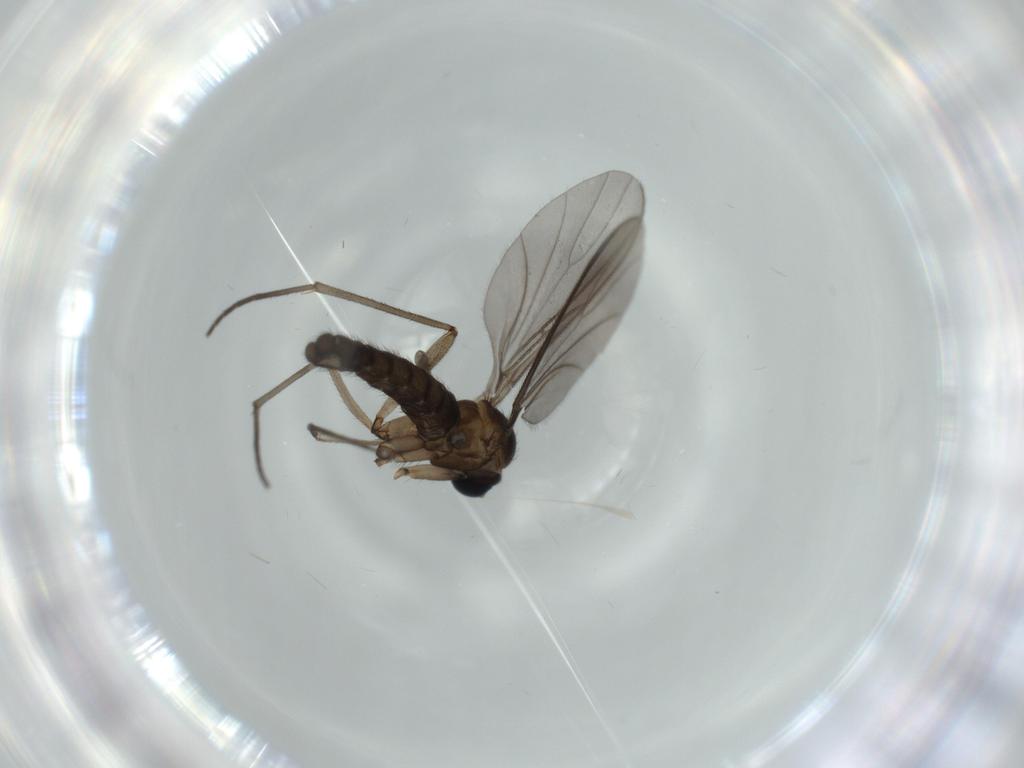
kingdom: Animalia
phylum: Arthropoda
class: Insecta
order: Diptera
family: Sciaridae
